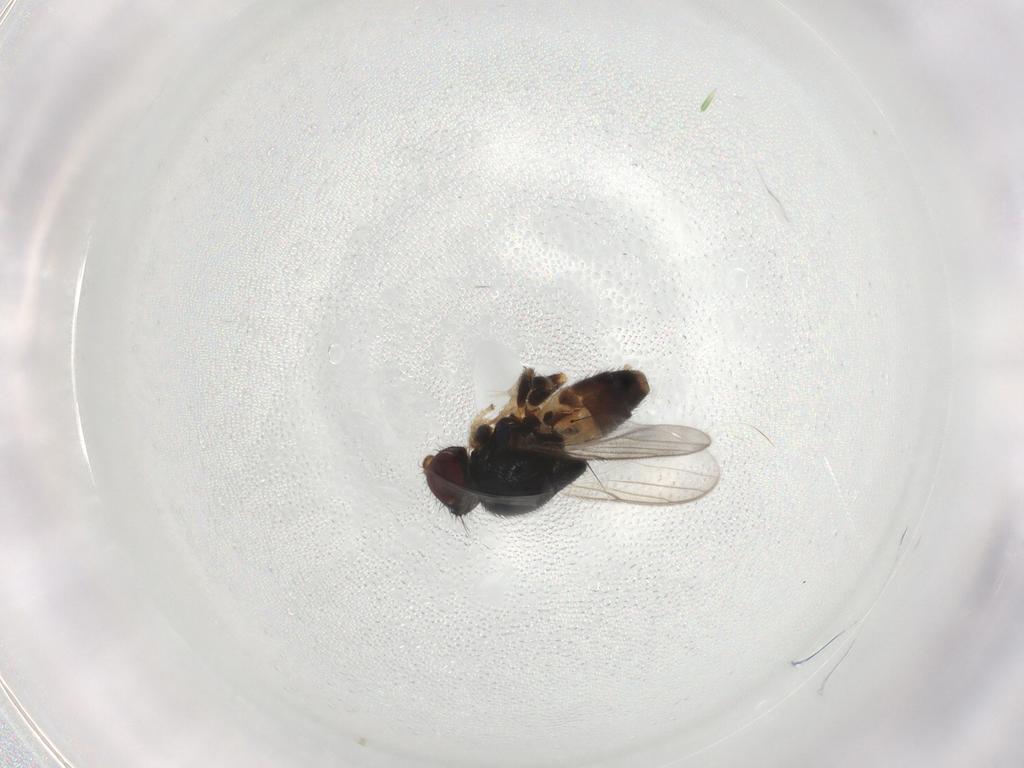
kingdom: Animalia
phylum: Arthropoda
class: Insecta
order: Diptera
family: Chloropidae
